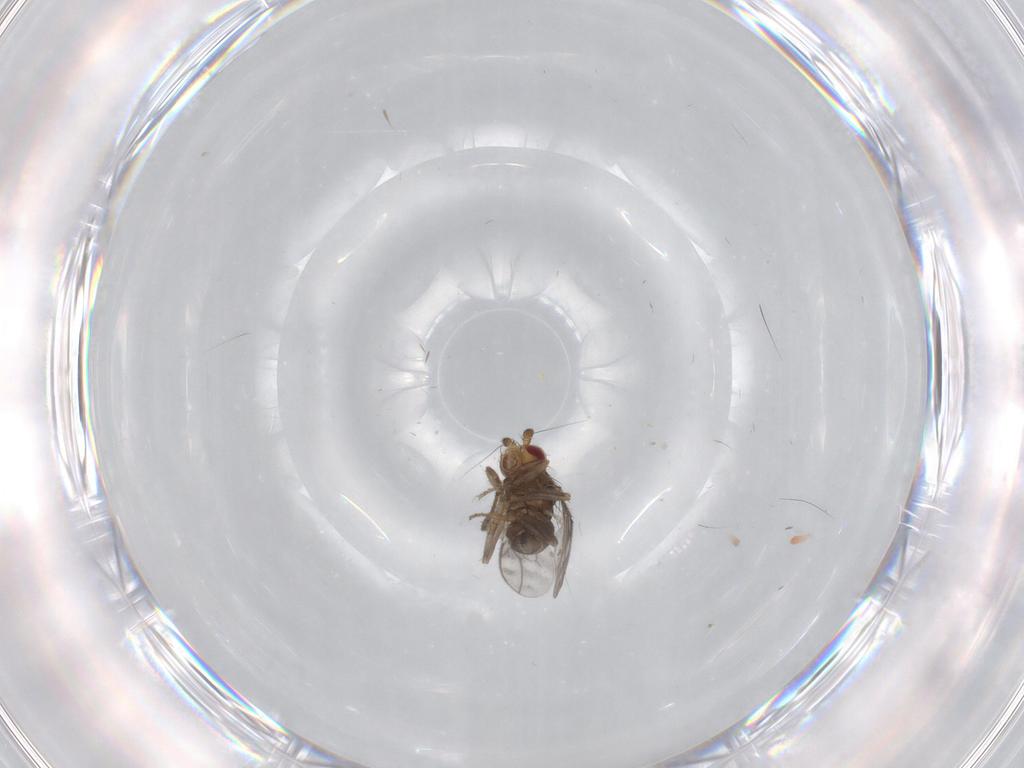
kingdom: Animalia
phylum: Arthropoda
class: Insecta
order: Diptera
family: Sphaeroceridae
